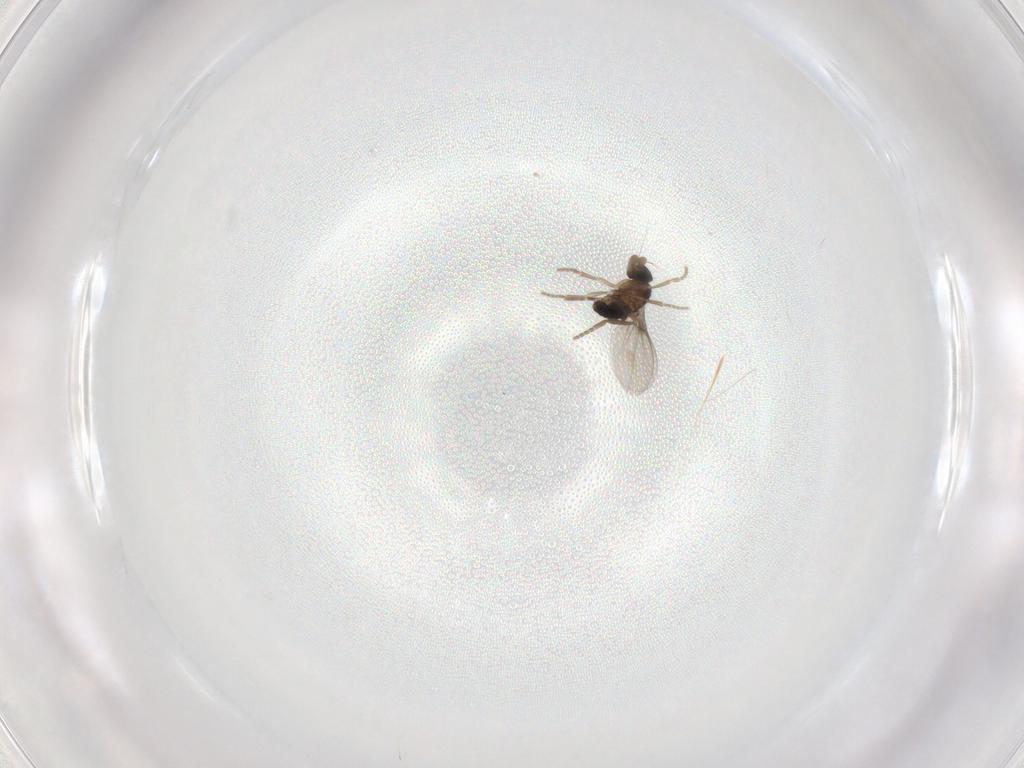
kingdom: Animalia
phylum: Arthropoda
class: Insecta
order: Diptera
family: Phoridae
